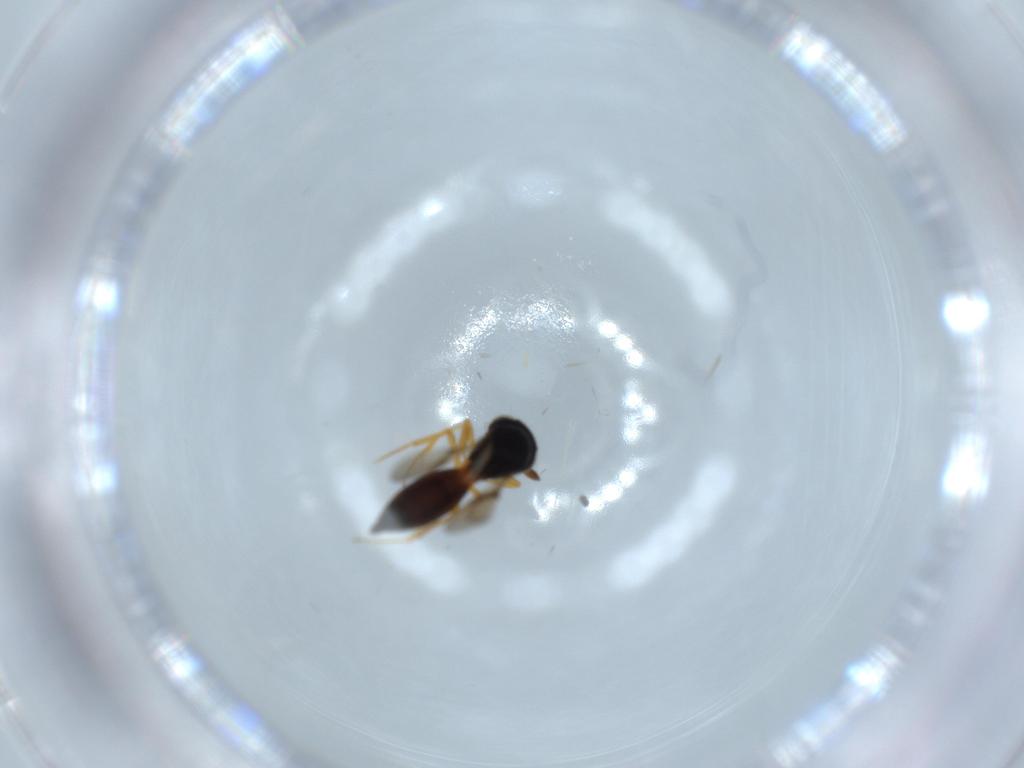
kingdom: Animalia
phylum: Arthropoda
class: Insecta
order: Hymenoptera
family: Scelionidae
